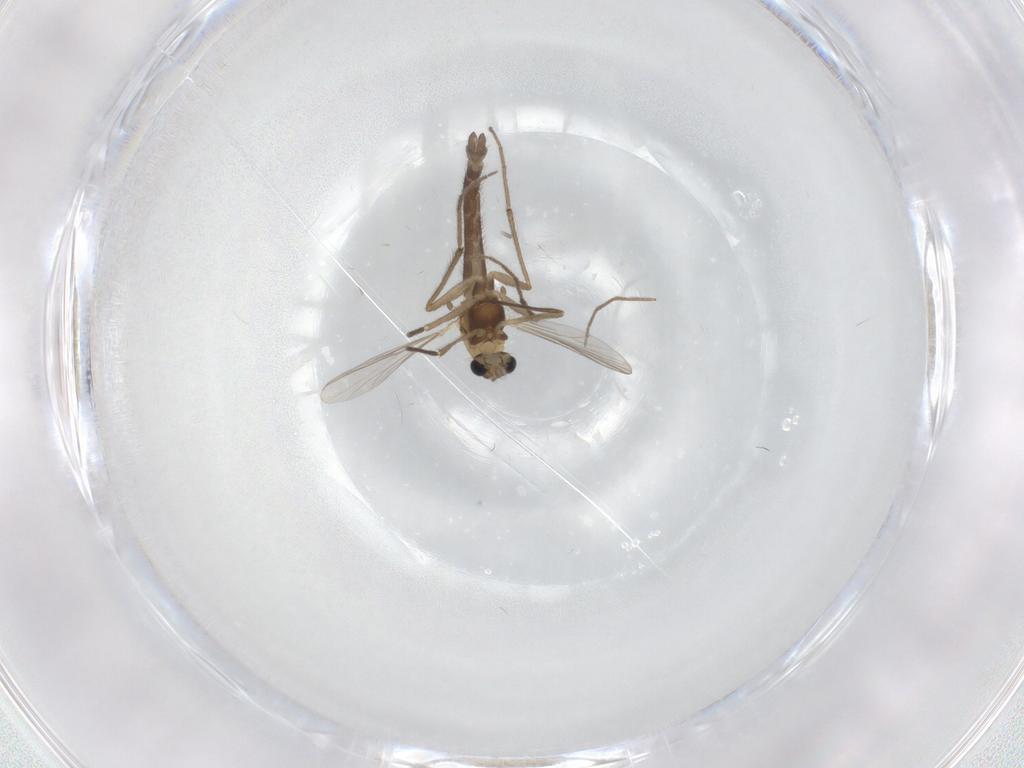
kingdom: Animalia
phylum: Arthropoda
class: Insecta
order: Diptera
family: Chironomidae
